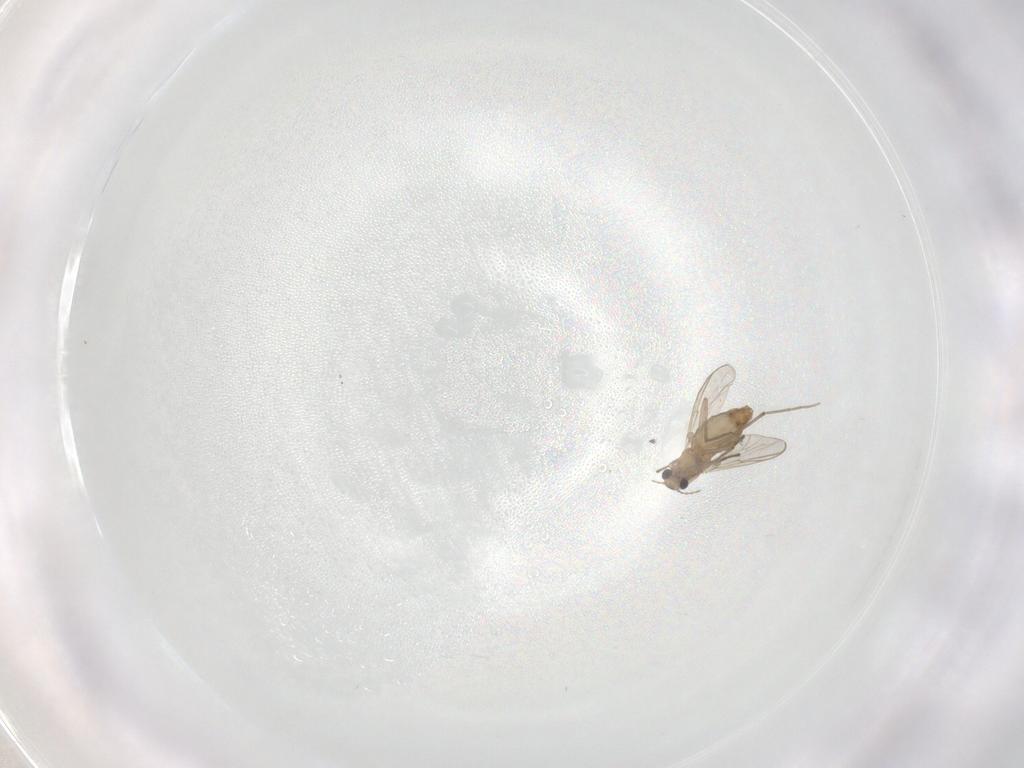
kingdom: Animalia
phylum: Arthropoda
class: Insecta
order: Diptera
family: Chironomidae
